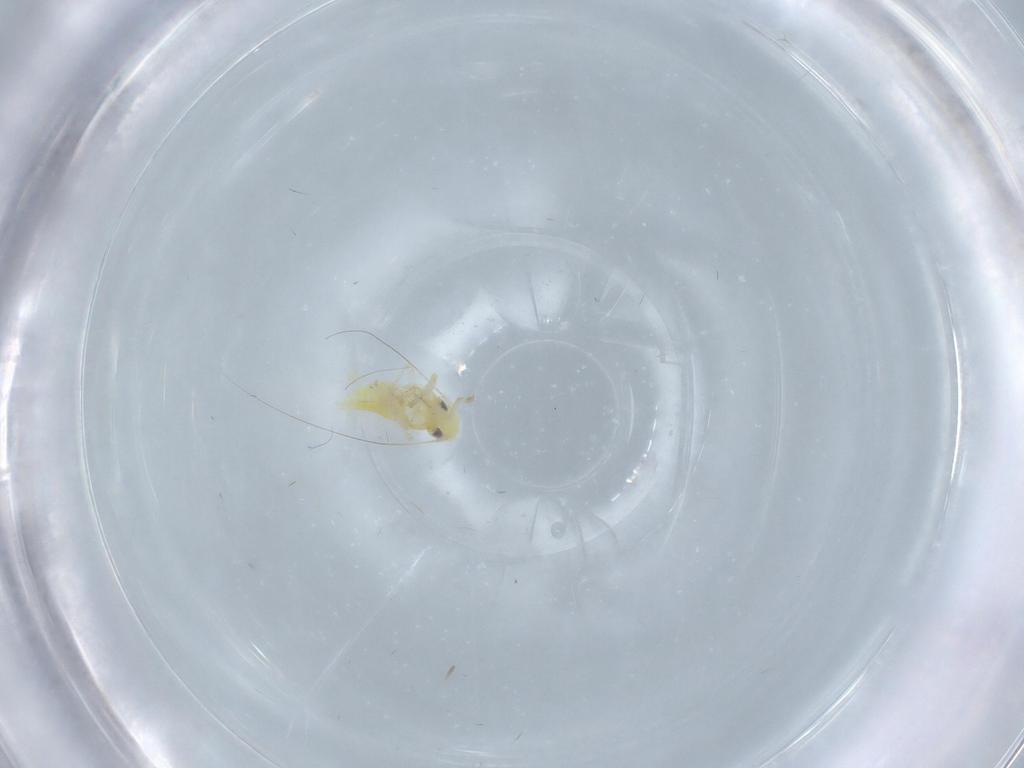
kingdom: Animalia
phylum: Arthropoda
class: Insecta
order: Hemiptera
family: Cicadellidae
